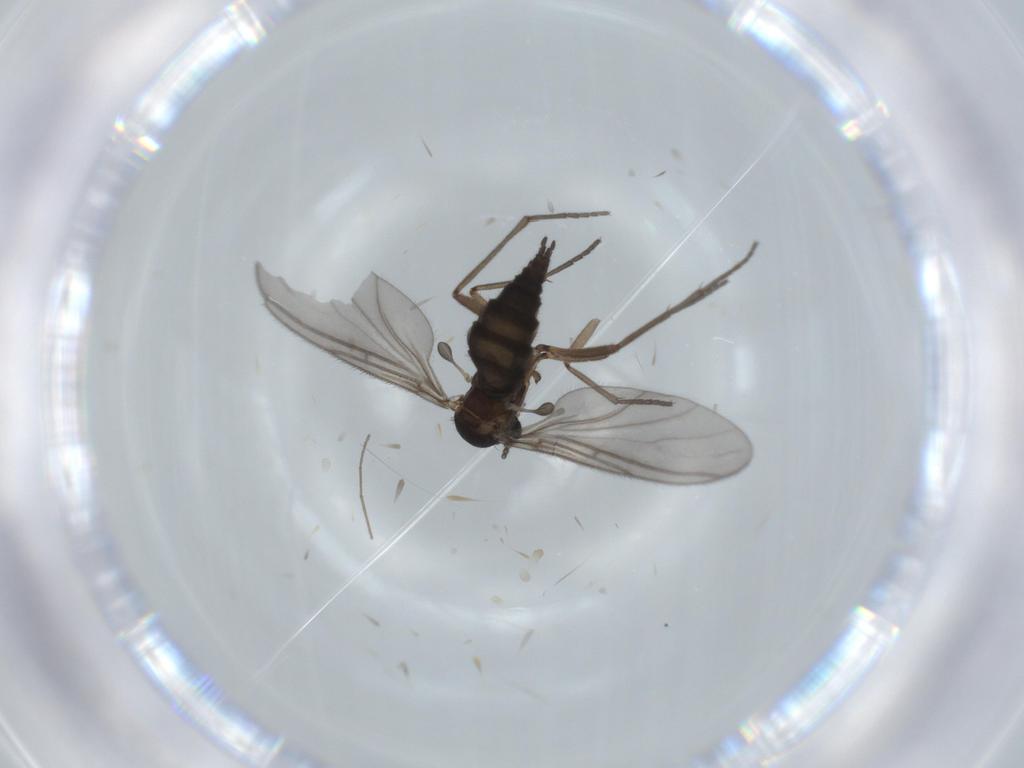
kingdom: Animalia
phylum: Arthropoda
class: Insecta
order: Diptera
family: Sciaridae
